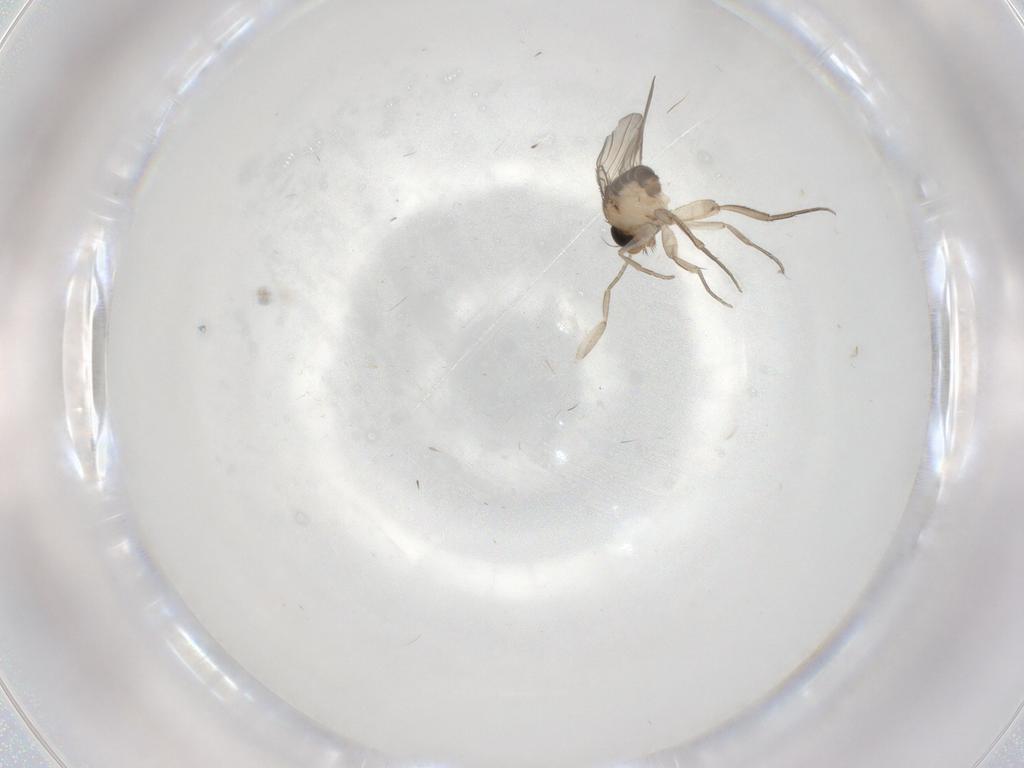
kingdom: Animalia
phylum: Arthropoda
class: Insecta
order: Diptera
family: Phoridae
